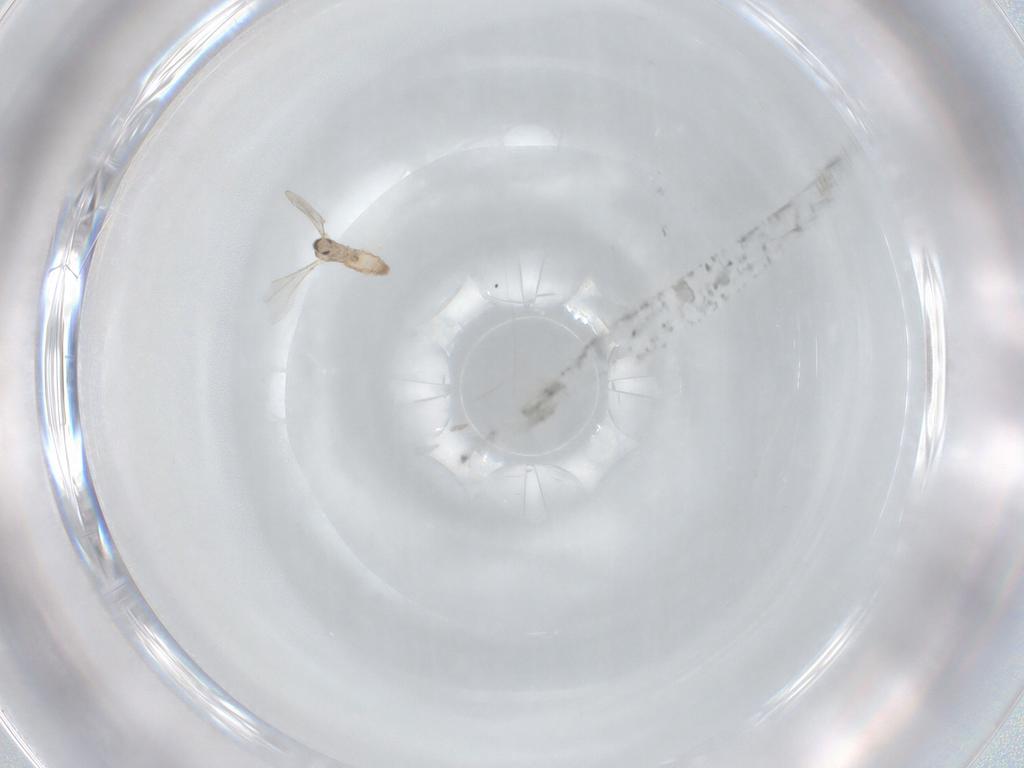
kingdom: Animalia
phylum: Arthropoda
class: Insecta
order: Diptera
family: Cecidomyiidae
